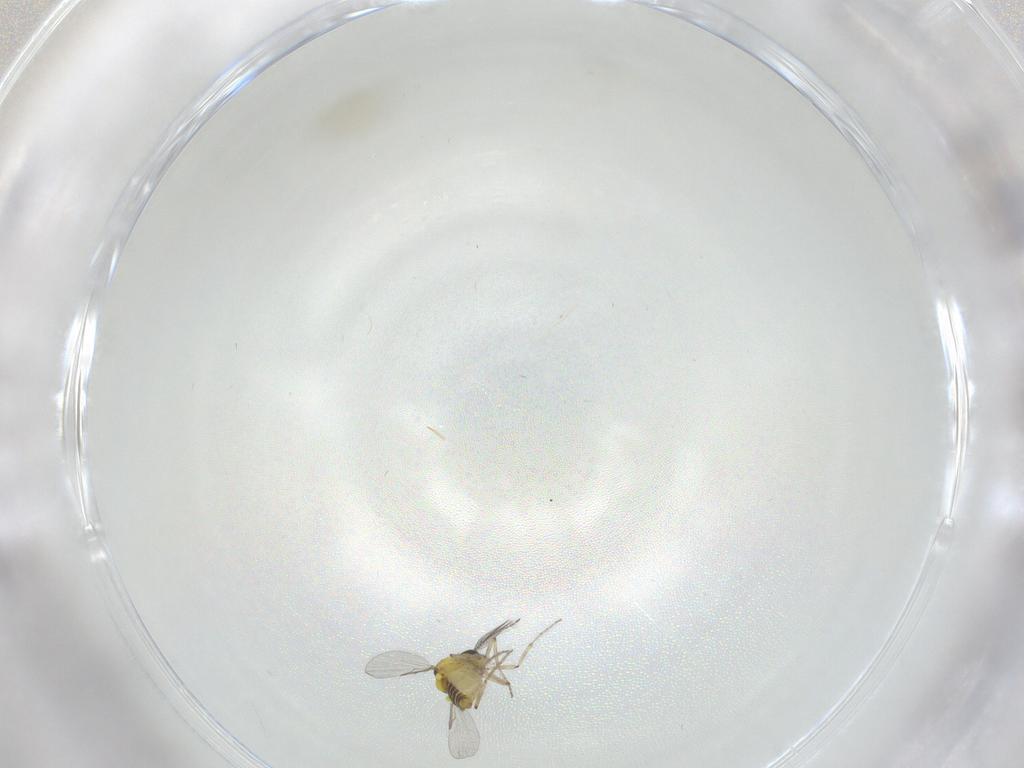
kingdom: Animalia
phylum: Arthropoda
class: Insecta
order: Diptera
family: Ceratopogonidae
